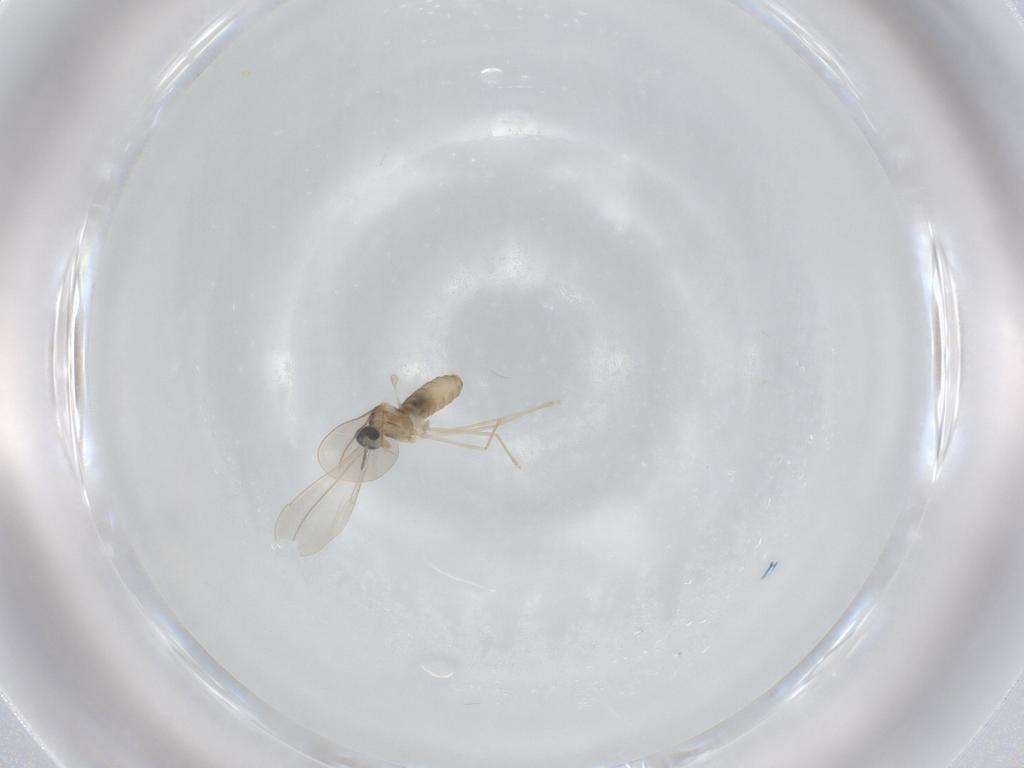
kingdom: Animalia
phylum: Arthropoda
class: Insecta
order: Diptera
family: Cecidomyiidae
